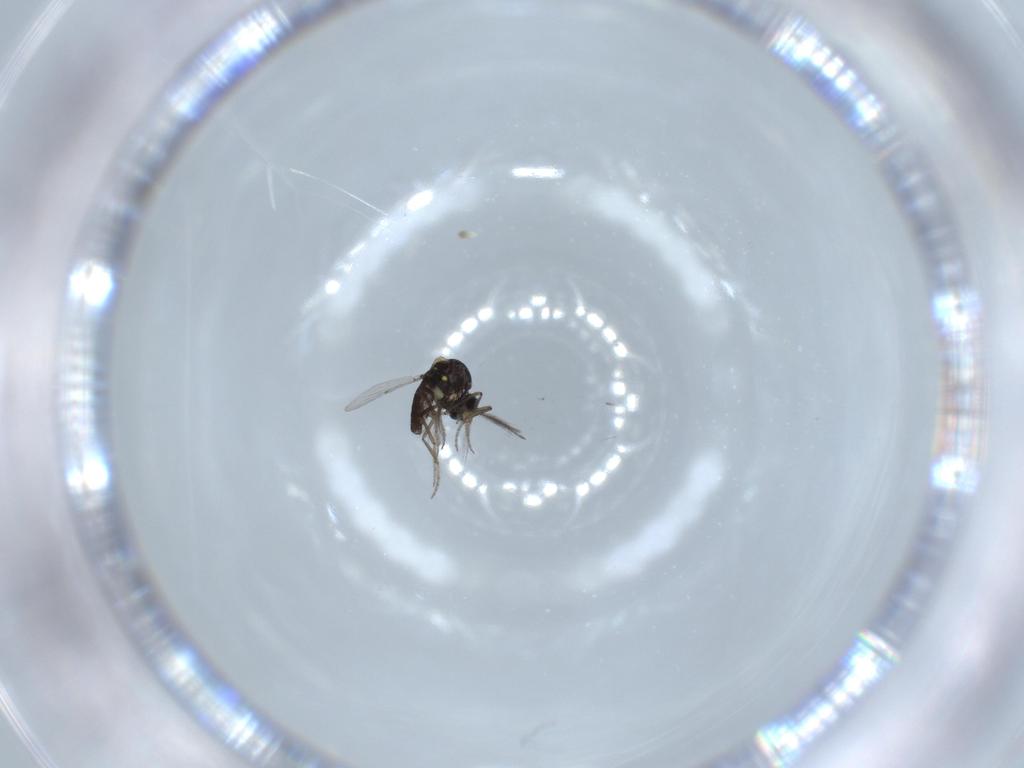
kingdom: Animalia
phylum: Arthropoda
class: Insecta
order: Diptera
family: Ceratopogonidae
